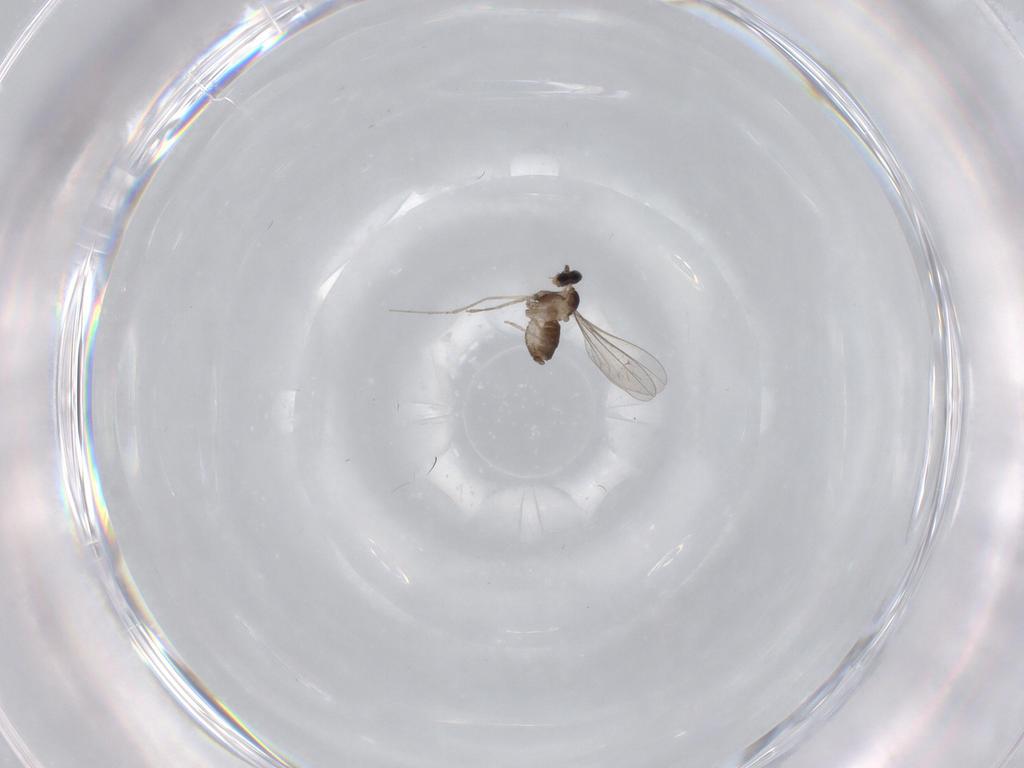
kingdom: Animalia
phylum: Arthropoda
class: Insecta
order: Diptera
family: Cecidomyiidae
